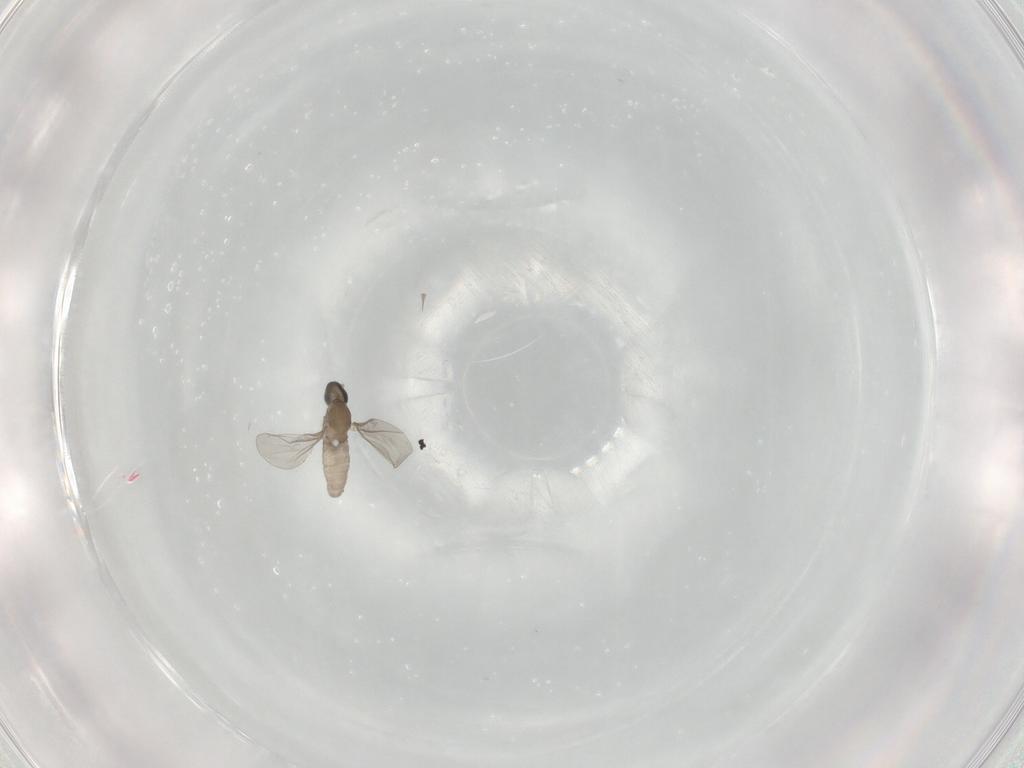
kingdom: Animalia
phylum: Arthropoda
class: Insecta
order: Diptera
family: Cecidomyiidae
